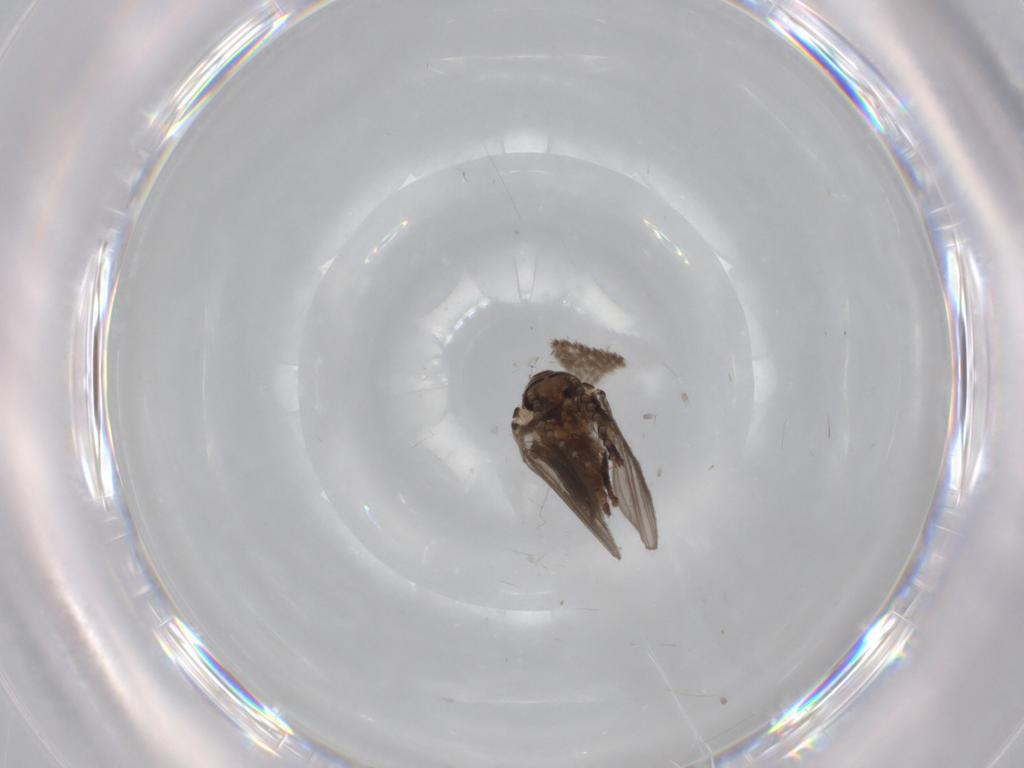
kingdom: Animalia
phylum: Arthropoda
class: Insecta
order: Diptera
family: Psychodidae
